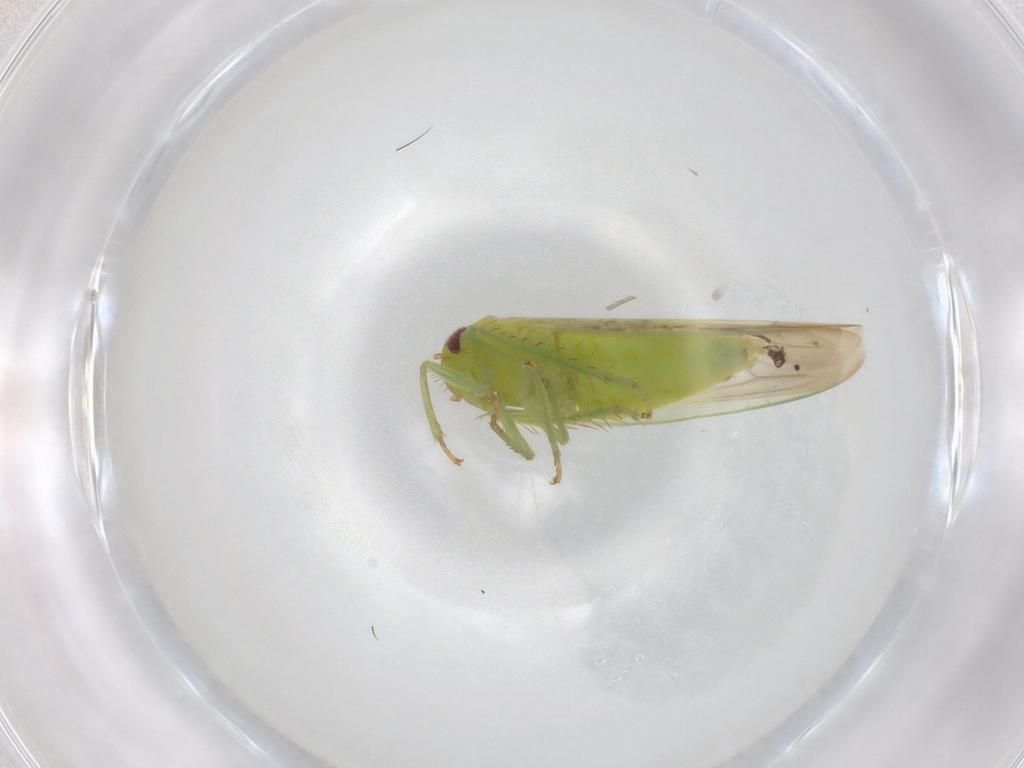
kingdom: Animalia
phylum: Arthropoda
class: Insecta
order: Hemiptera
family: Cicadellidae
